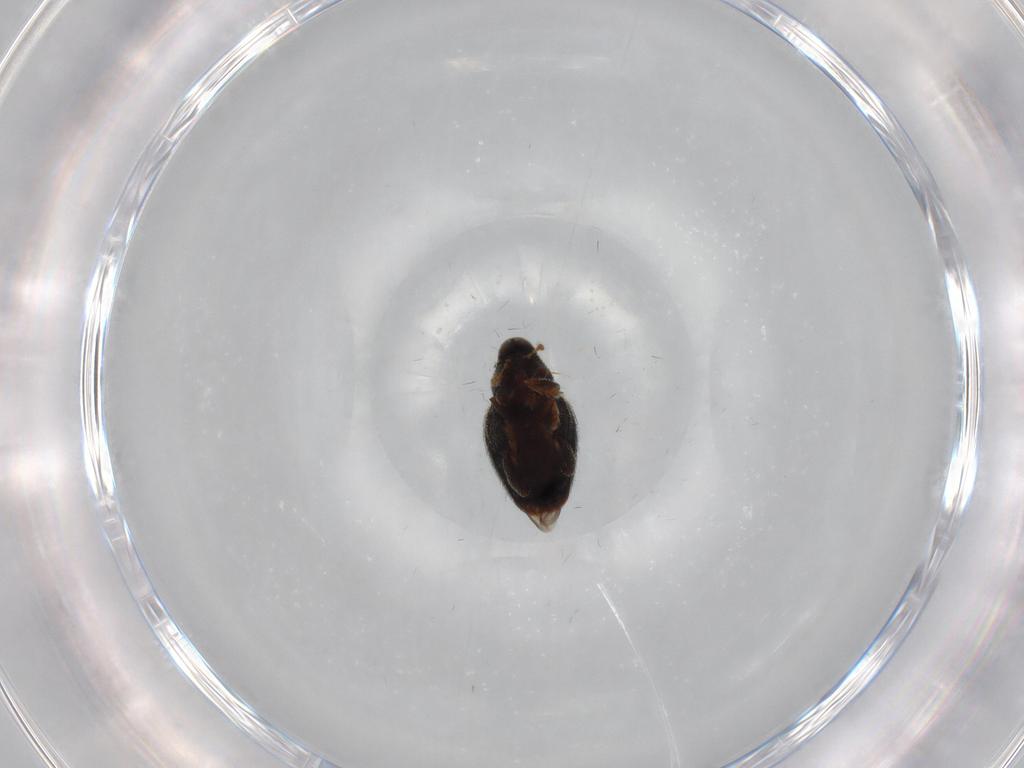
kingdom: Animalia
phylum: Arthropoda
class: Insecta
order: Coleoptera
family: Curculionidae
